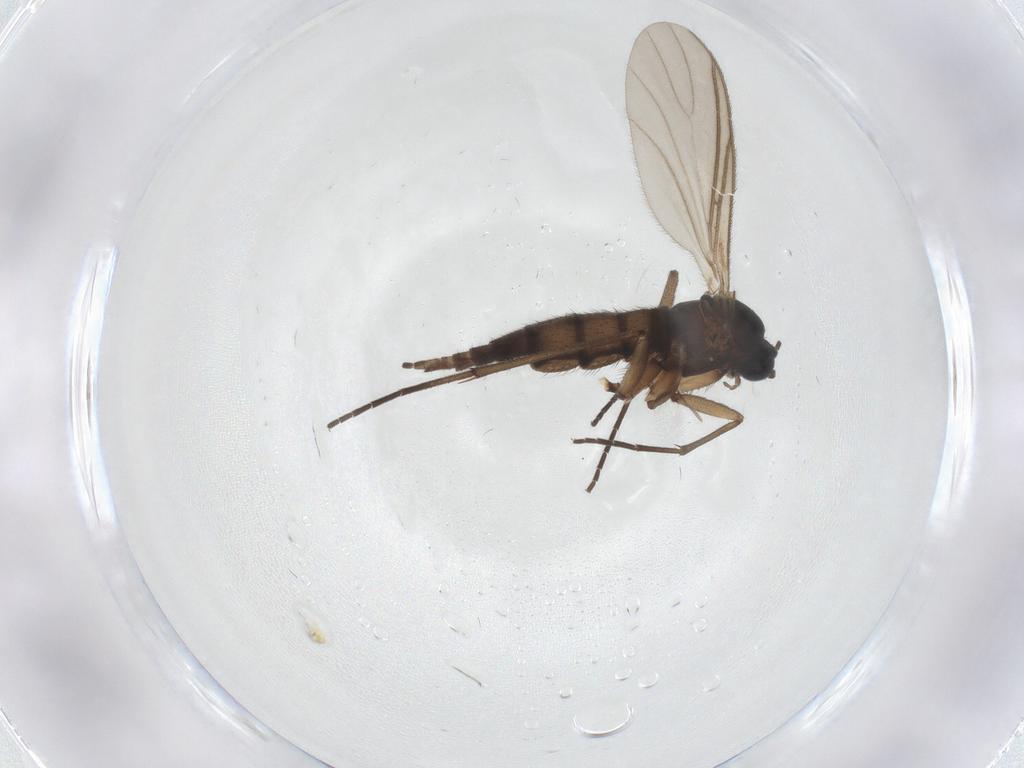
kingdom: Animalia
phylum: Arthropoda
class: Insecta
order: Diptera
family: Sciaridae
